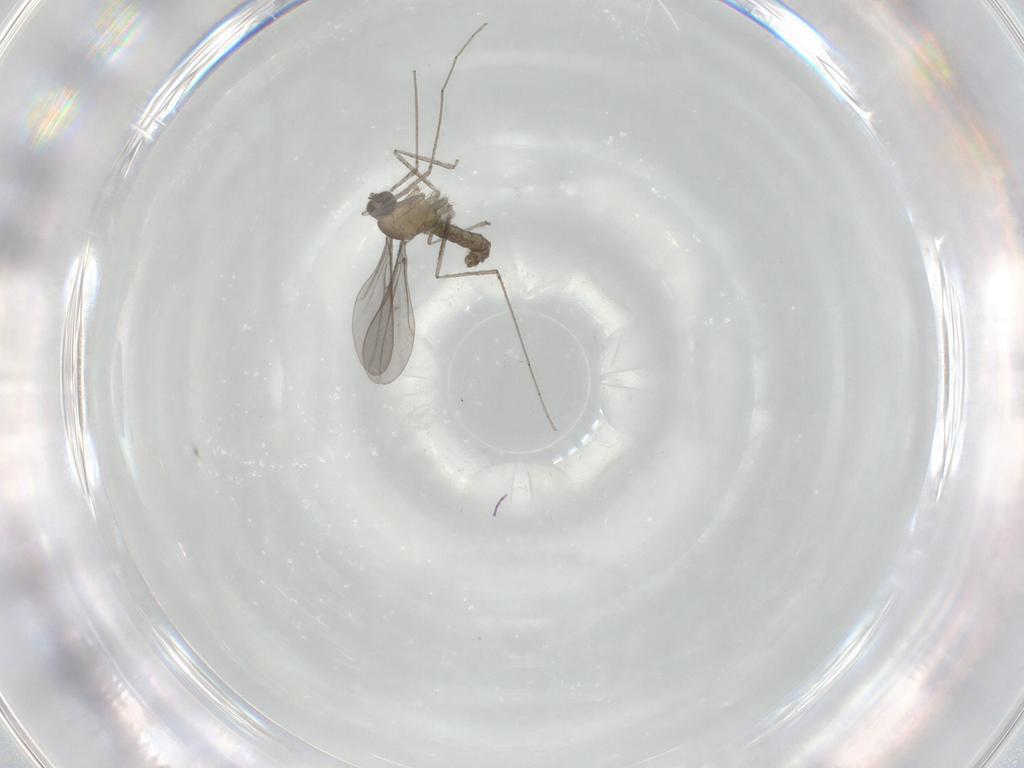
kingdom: Animalia
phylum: Arthropoda
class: Insecta
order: Diptera
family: Cecidomyiidae
